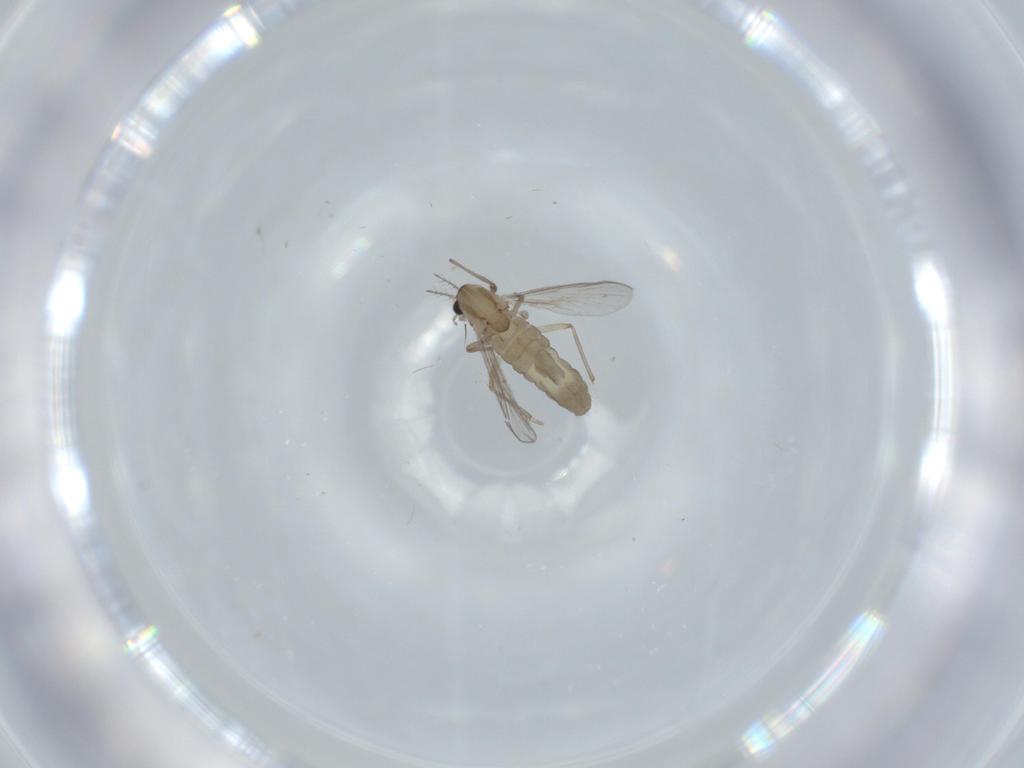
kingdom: Animalia
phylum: Arthropoda
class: Insecta
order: Diptera
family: Chironomidae
